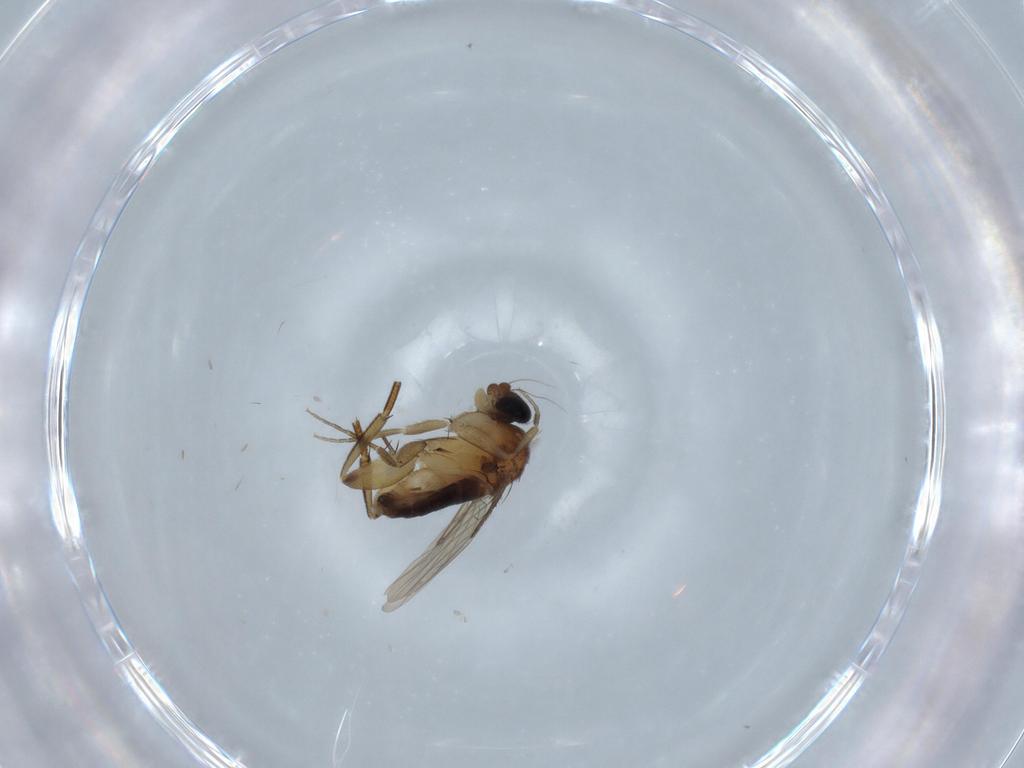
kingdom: Animalia
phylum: Arthropoda
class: Insecta
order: Diptera
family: Phoridae
